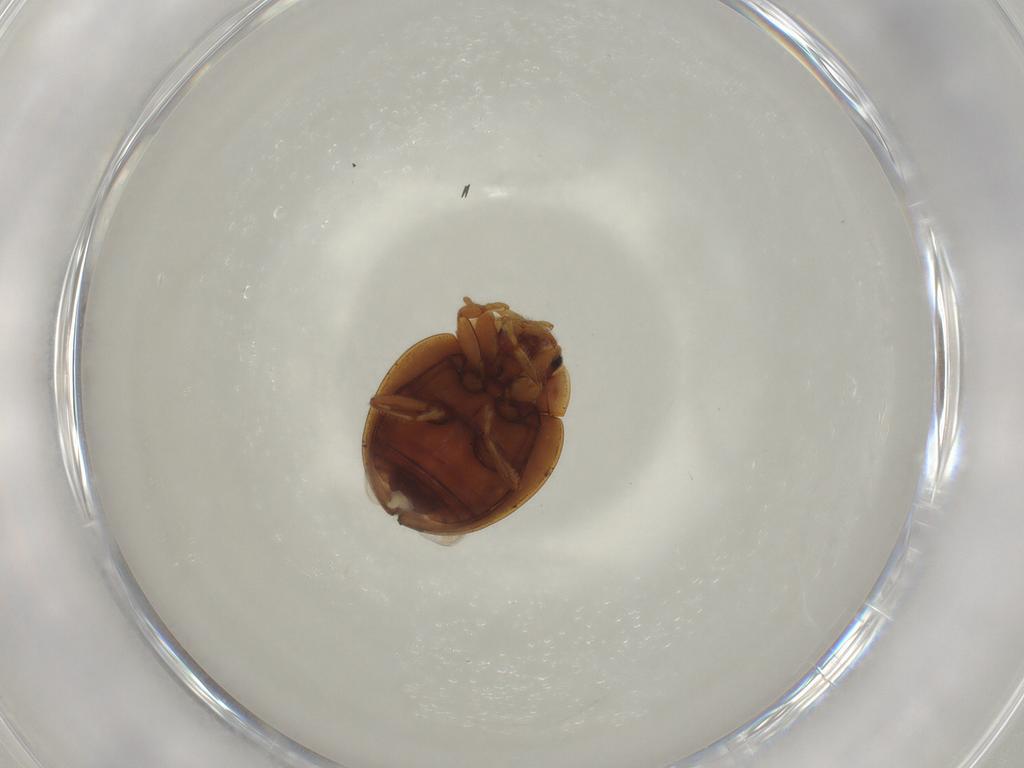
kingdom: Animalia
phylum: Arthropoda
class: Insecta
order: Coleoptera
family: Coccinellidae
